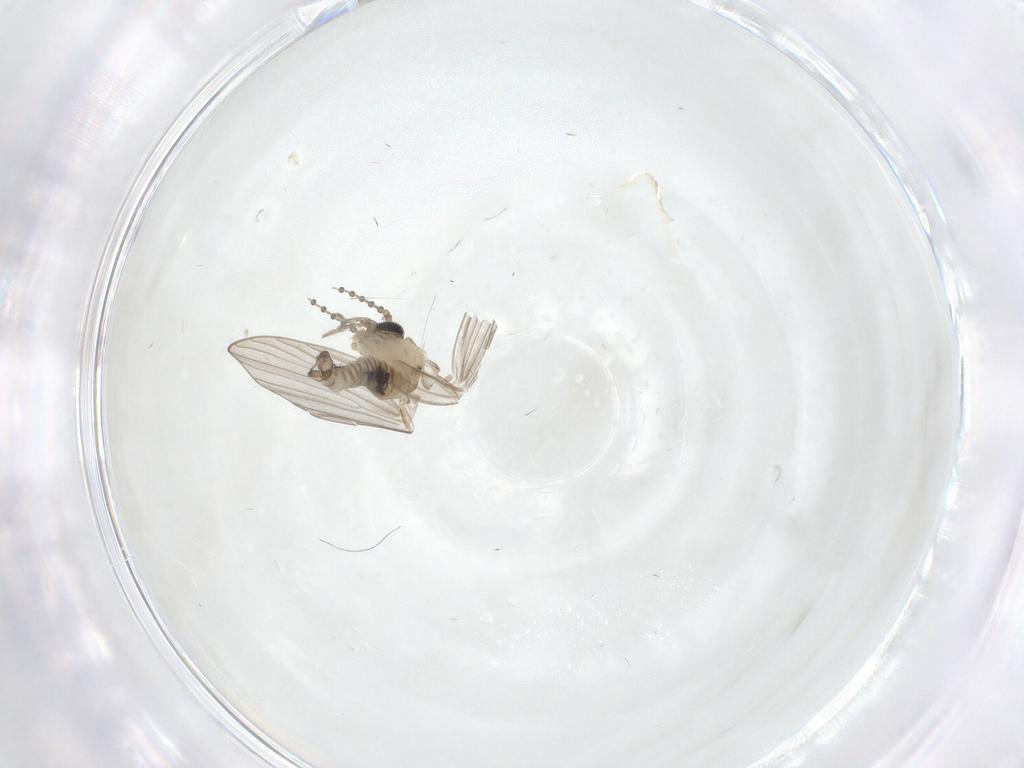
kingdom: Animalia
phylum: Arthropoda
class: Insecta
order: Diptera
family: Psychodidae
